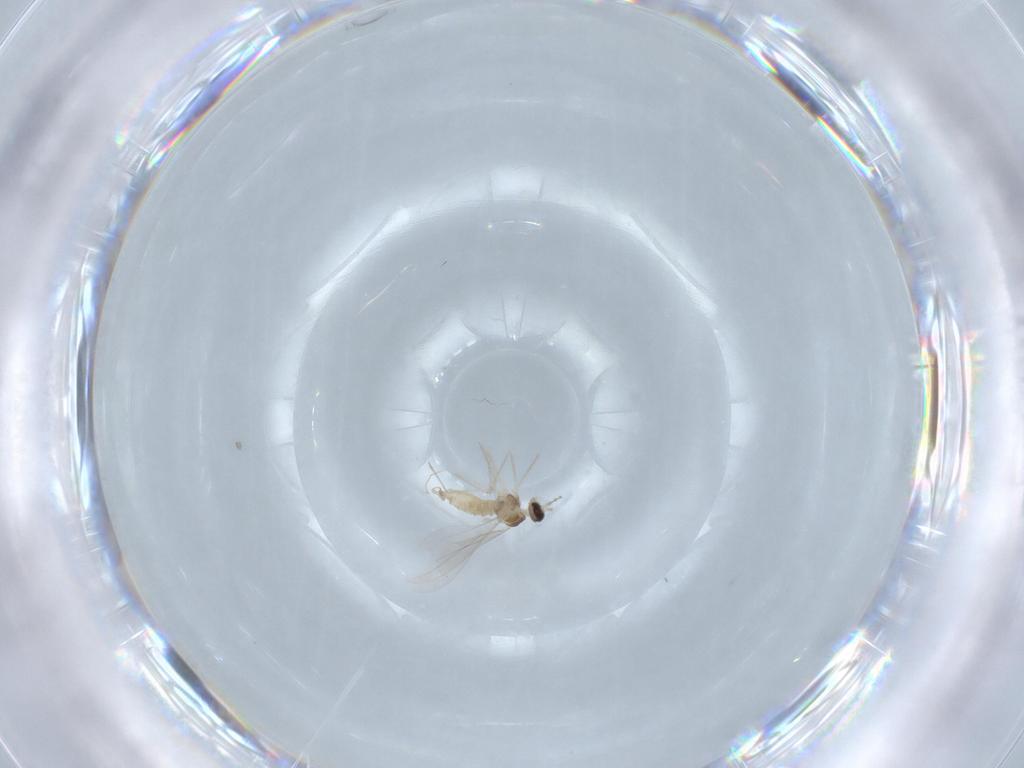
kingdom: Animalia
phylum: Arthropoda
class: Insecta
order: Diptera
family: Cecidomyiidae
